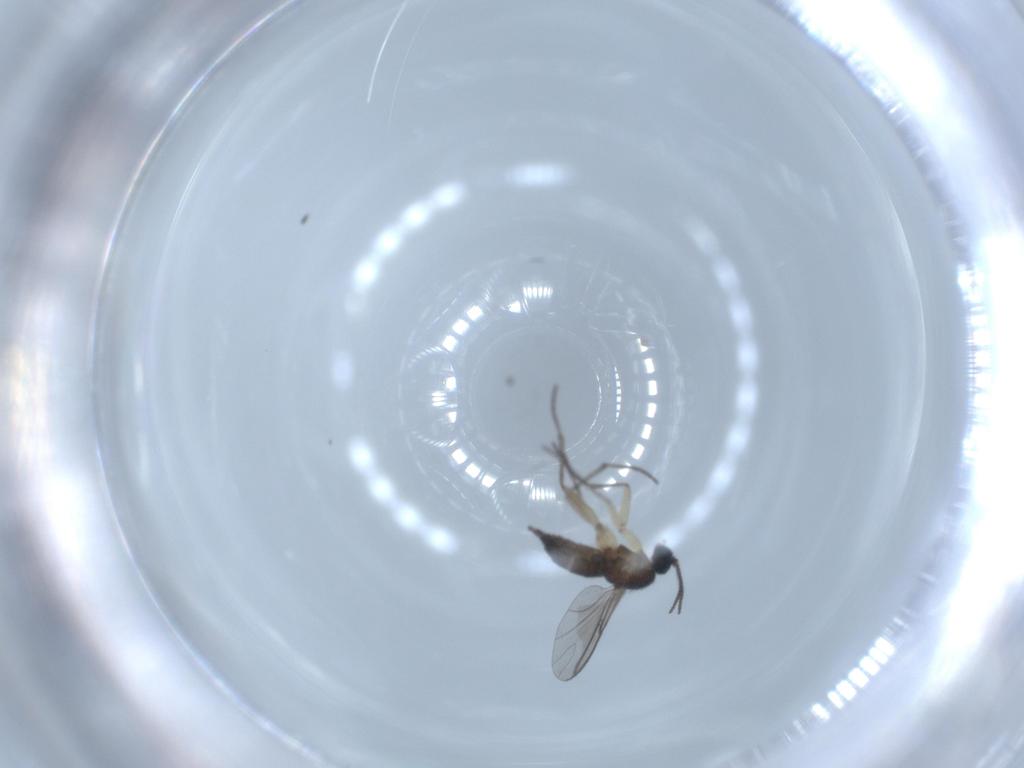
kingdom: Animalia
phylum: Arthropoda
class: Insecta
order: Diptera
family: Sciaridae
